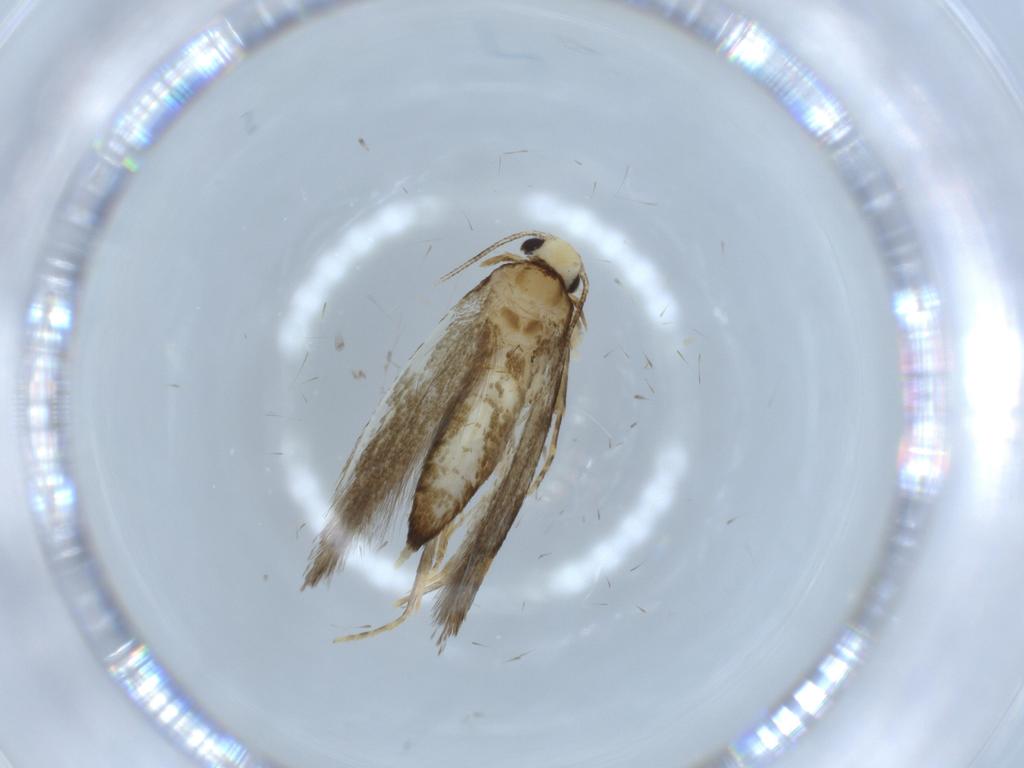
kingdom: Animalia
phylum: Arthropoda
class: Insecta
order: Lepidoptera
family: Tineidae
